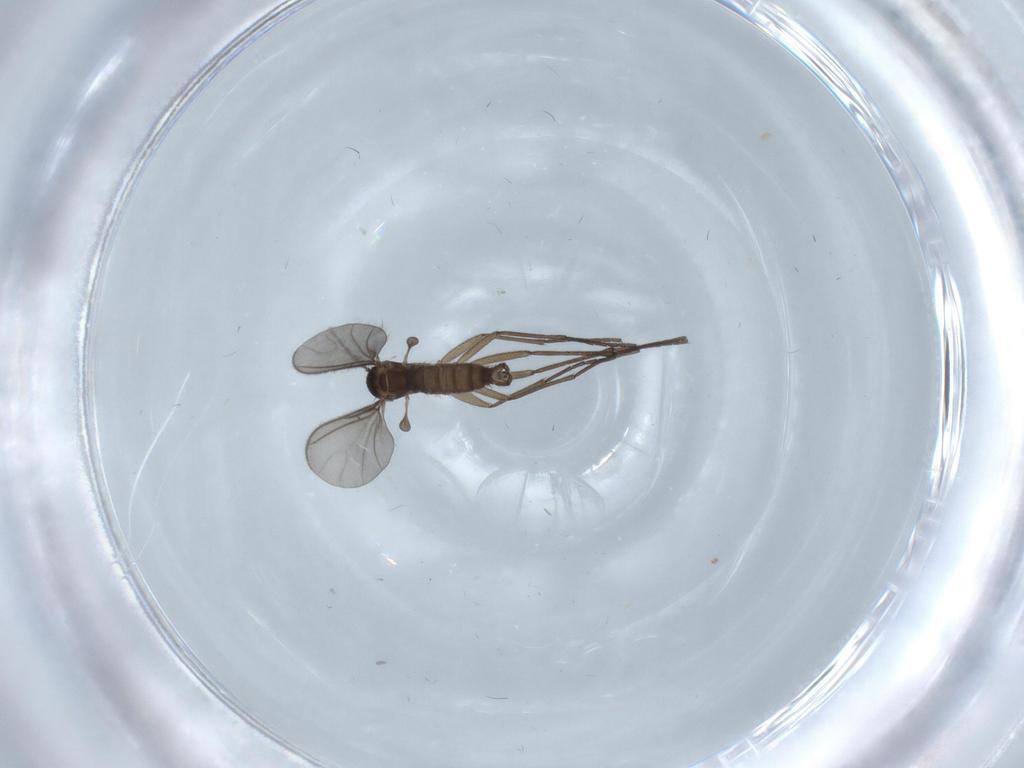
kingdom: Animalia
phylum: Arthropoda
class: Insecta
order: Diptera
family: Sciaridae
